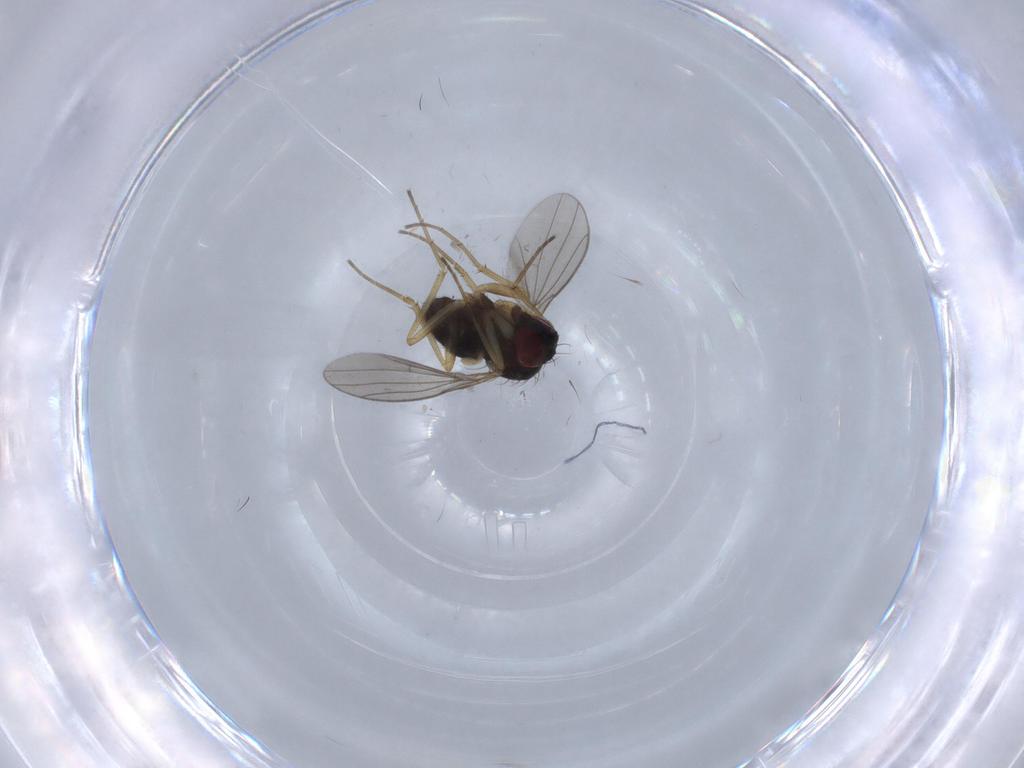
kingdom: Animalia
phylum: Arthropoda
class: Insecta
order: Diptera
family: Dolichopodidae
